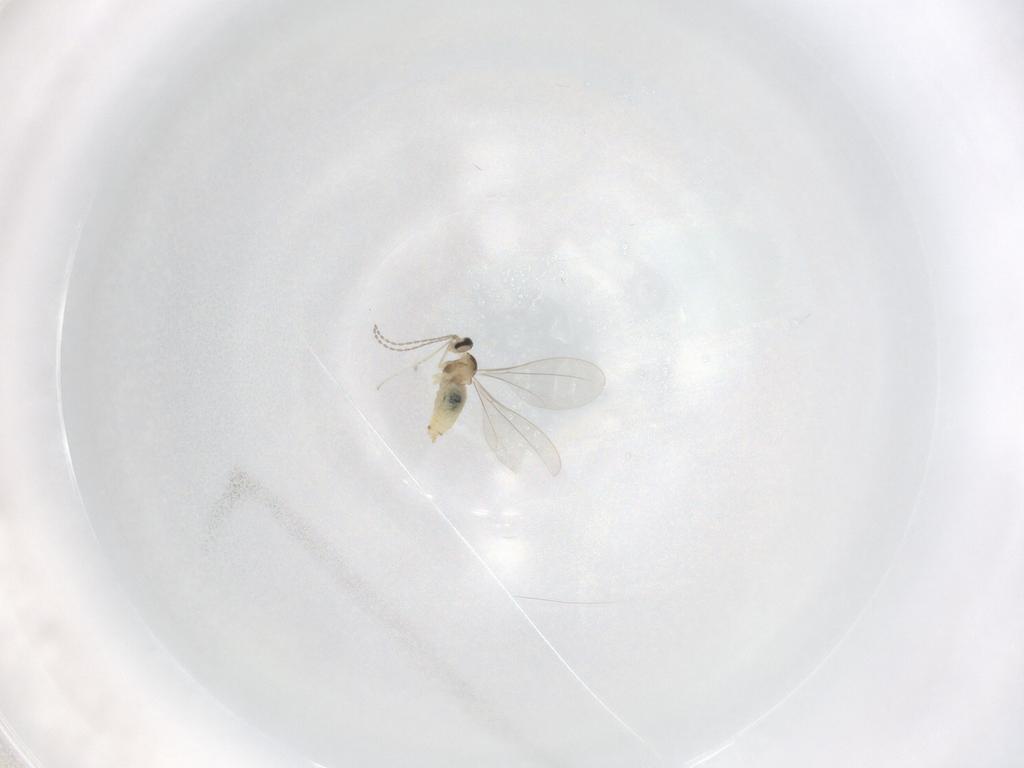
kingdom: Animalia
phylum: Arthropoda
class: Insecta
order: Diptera
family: Cecidomyiidae
